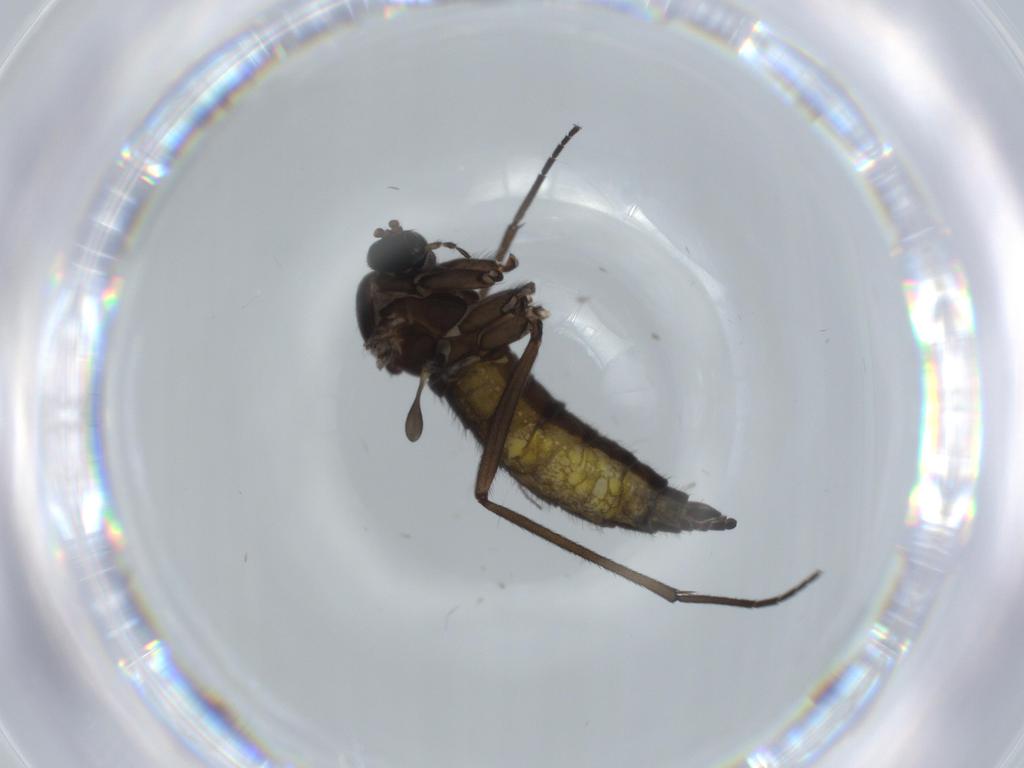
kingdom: Animalia
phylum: Arthropoda
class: Insecta
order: Diptera
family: Sciaridae
